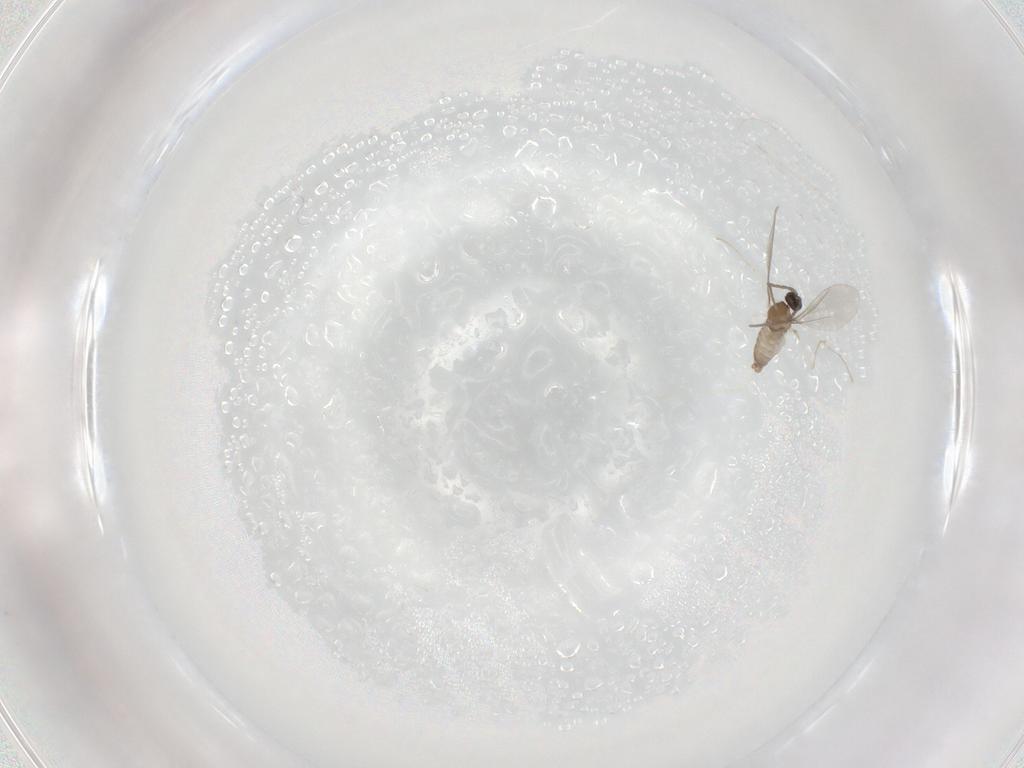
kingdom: Animalia
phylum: Arthropoda
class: Insecta
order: Diptera
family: Cecidomyiidae
